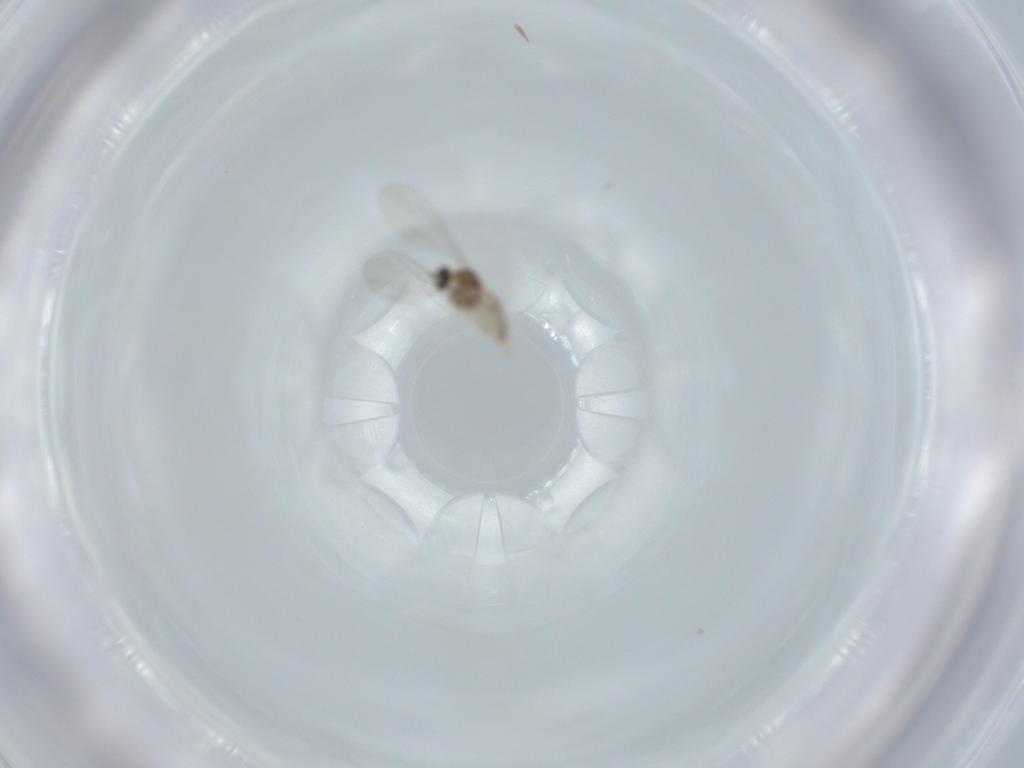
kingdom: Animalia
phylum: Arthropoda
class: Insecta
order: Diptera
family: Cecidomyiidae
